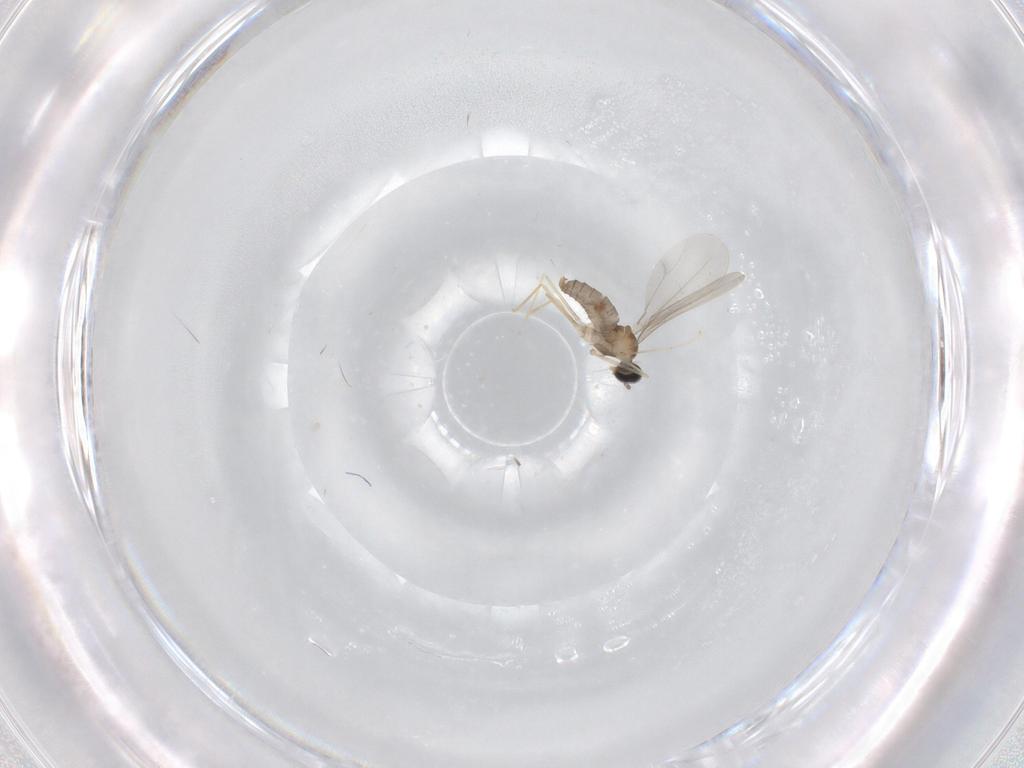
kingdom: Animalia
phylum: Arthropoda
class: Insecta
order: Diptera
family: Cecidomyiidae
